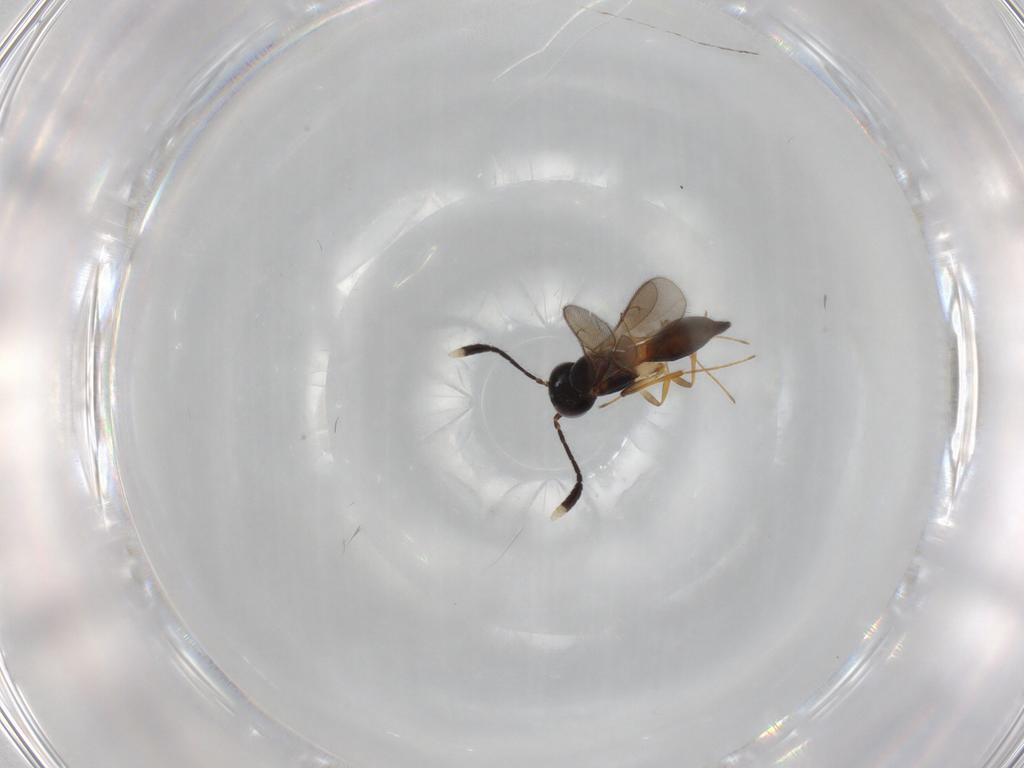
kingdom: Animalia
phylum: Arthropoda
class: Insecta
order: Hymenoptera
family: Scelionidae
